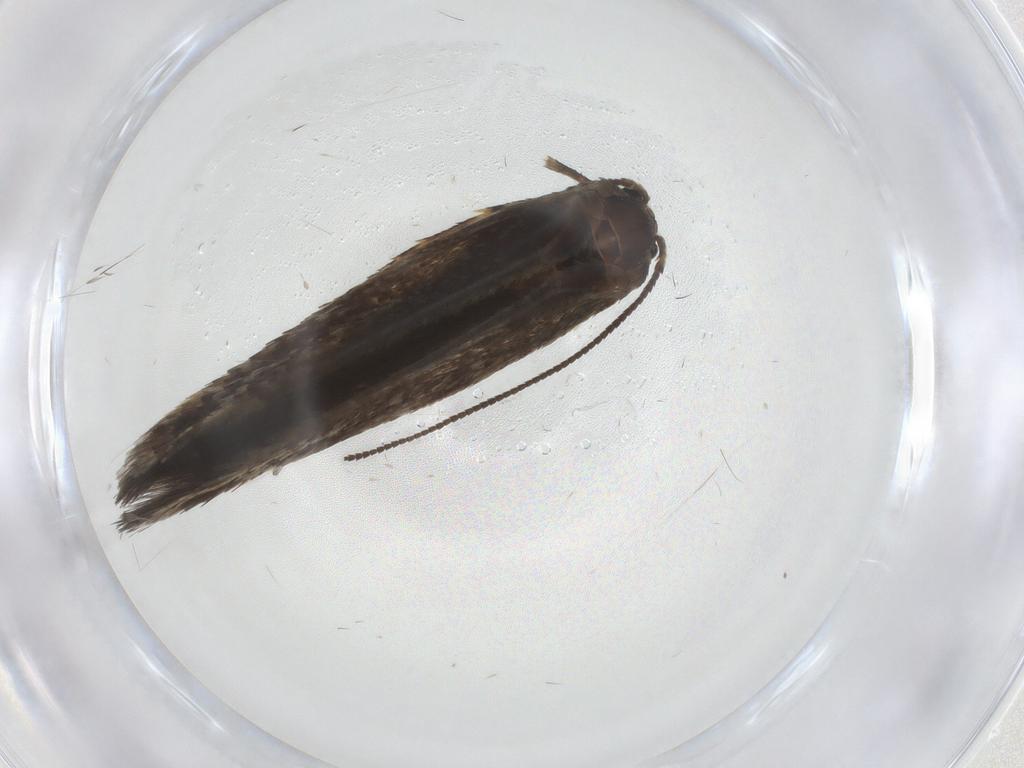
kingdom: Animalia
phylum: Arthropoda
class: Insecta
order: Lepidoptera
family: Nepticulidae
